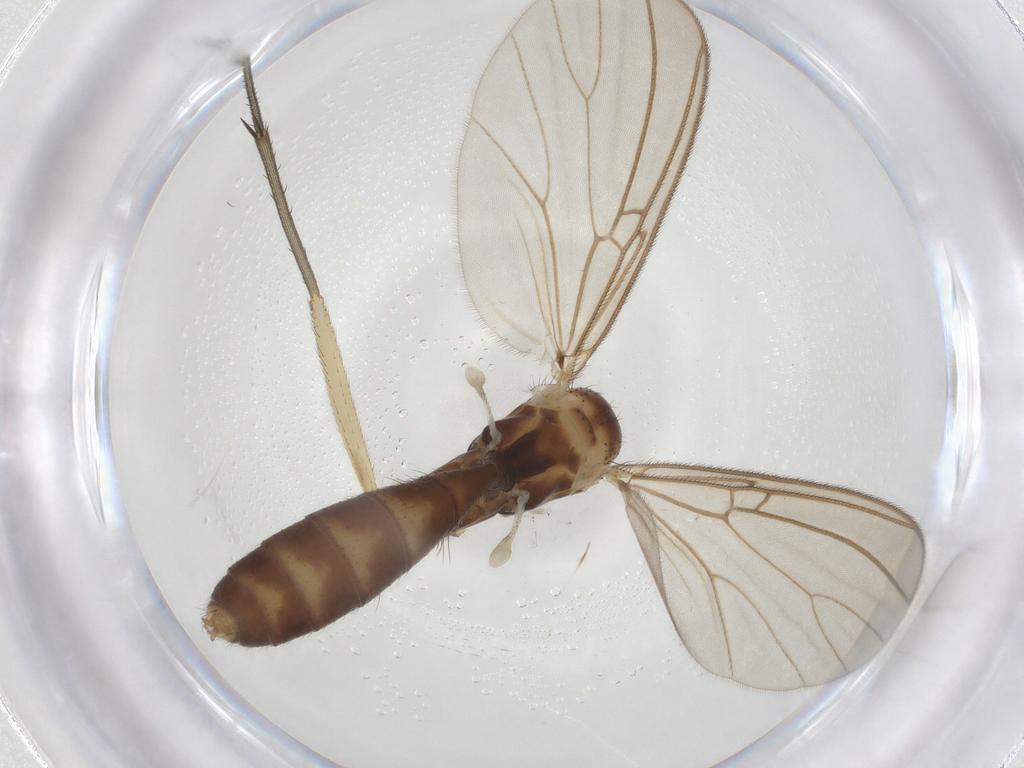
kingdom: Animalia
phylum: Arthropoda
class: Insecta
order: Diptera
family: Mycetophilidae
